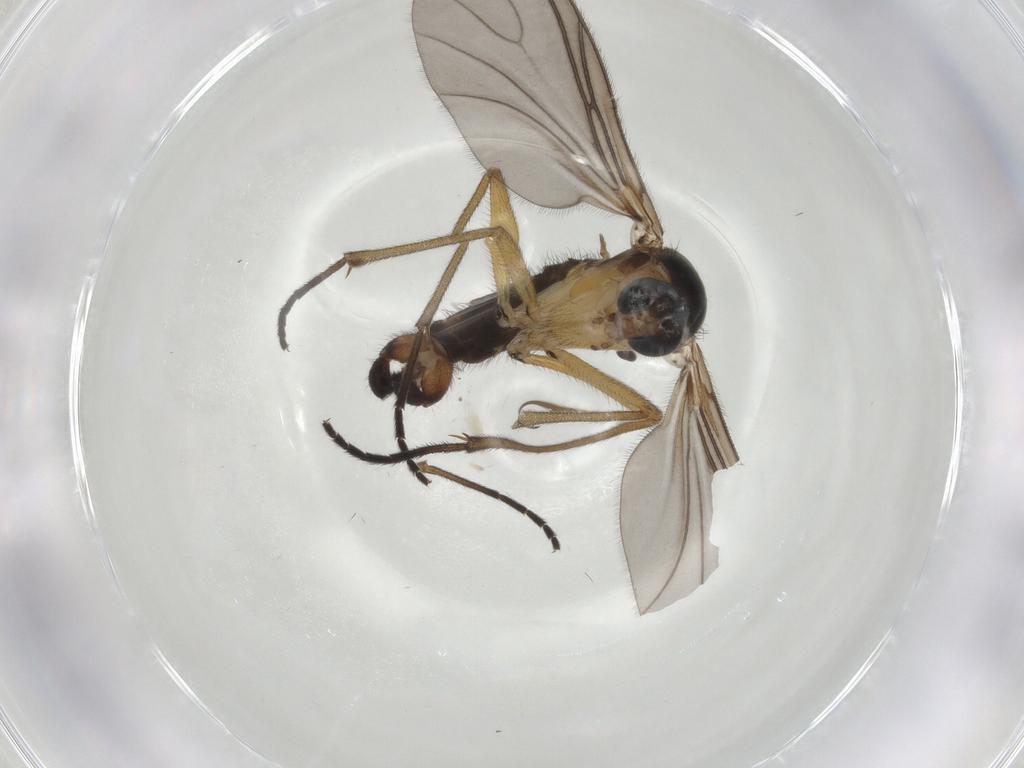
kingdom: Animalia
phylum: Arthropoda
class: Insecta
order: Diptera
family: Sciaridae
